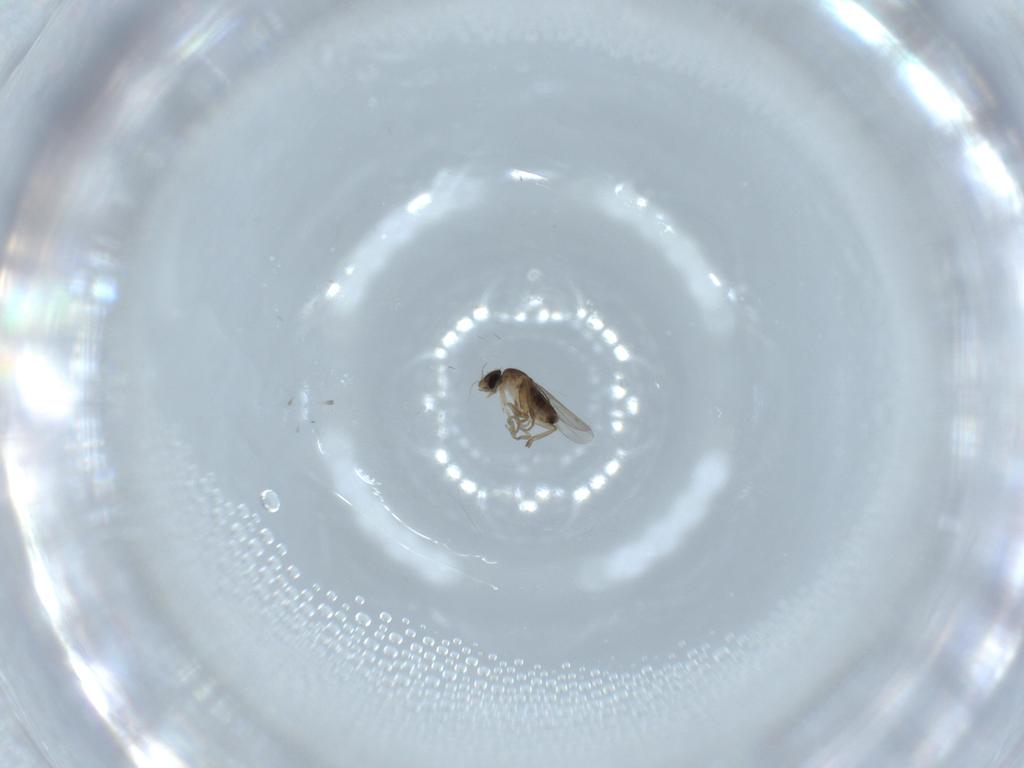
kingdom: Animalia
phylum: Arthropoda
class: Insecta
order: Diptera
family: Phoridae
